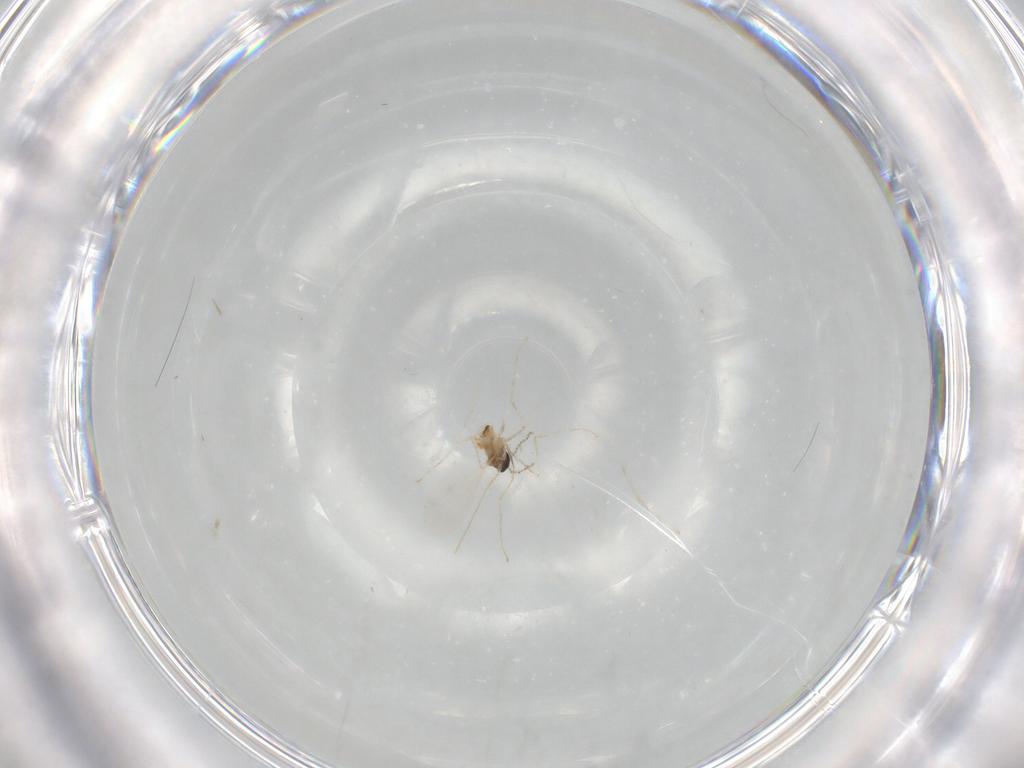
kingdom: Animalia
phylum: Arthropoda
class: Insecta
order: Diptera
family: Cecidomyiidae
